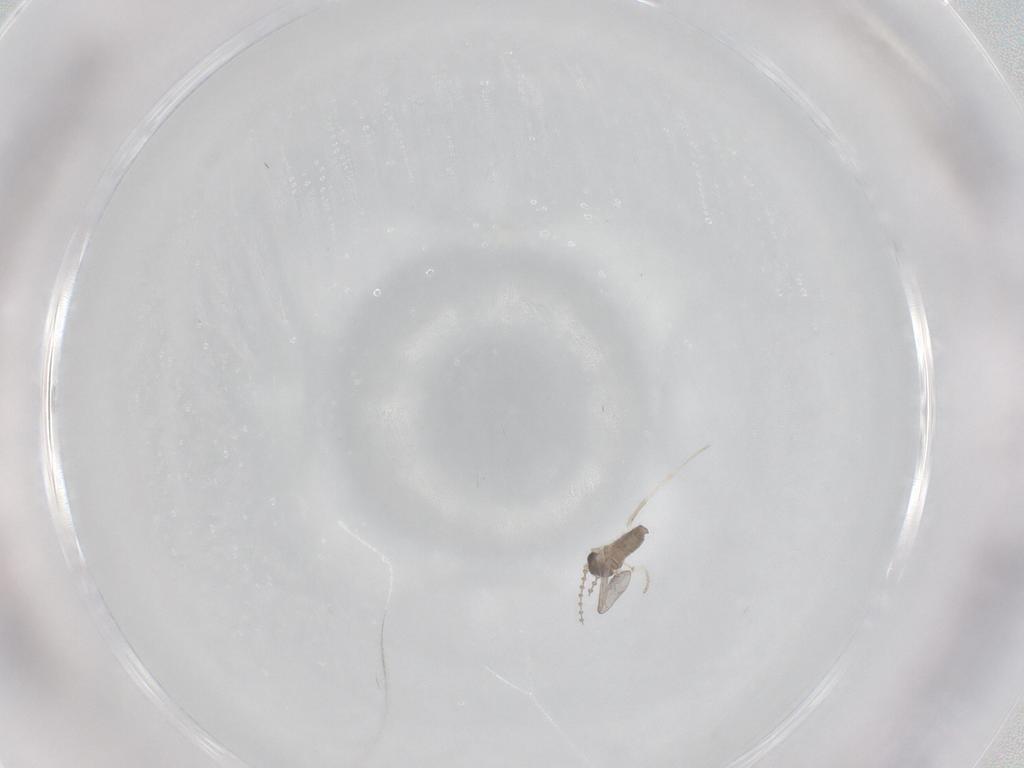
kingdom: Animalia
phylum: Arthropoda
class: Insecta
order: Diptera
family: Cecidomyiidae
